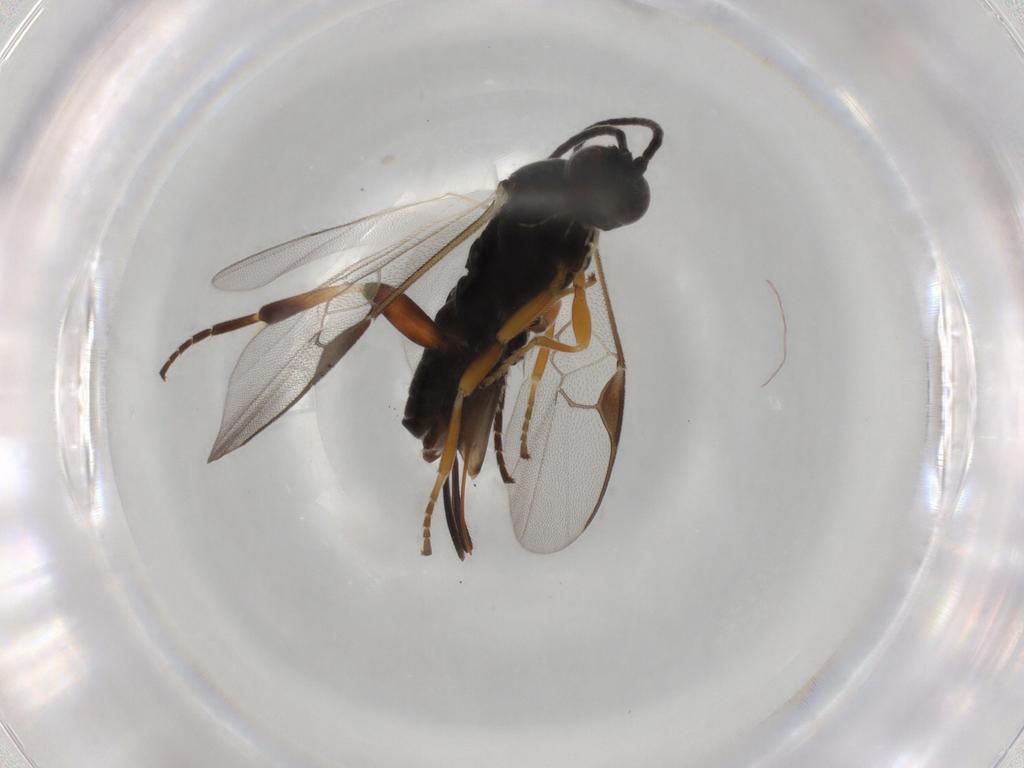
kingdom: Animalia
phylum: Arthropoda
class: Insecta
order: Hymenoptera
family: Braconidae
